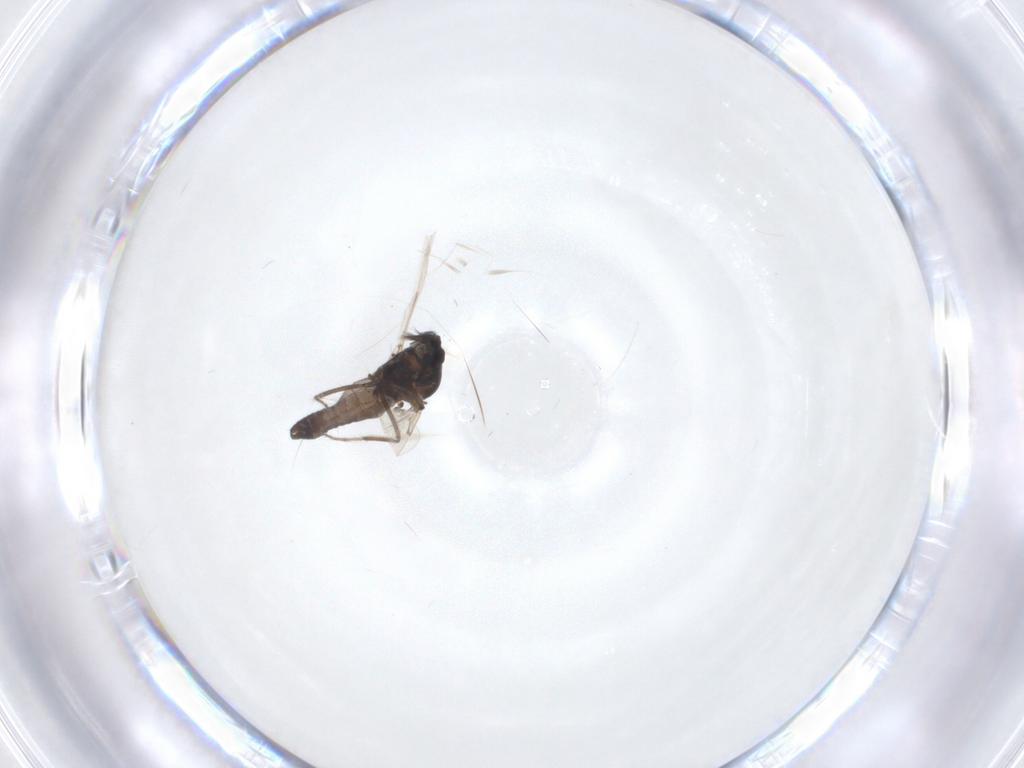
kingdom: Animalia
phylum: Arthropoda
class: Insecta
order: Diptera
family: Ceratopogonidae
